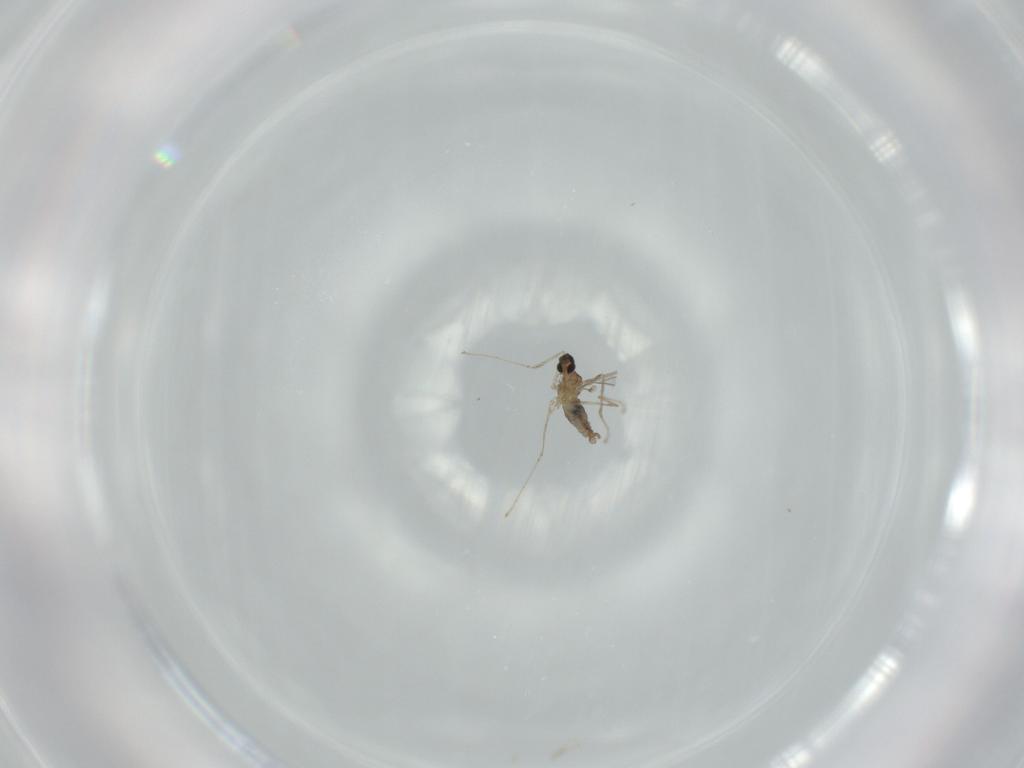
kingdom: Animalia
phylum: Arthropoda
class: Insecta
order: Diptera
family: Cecidomyiidae
